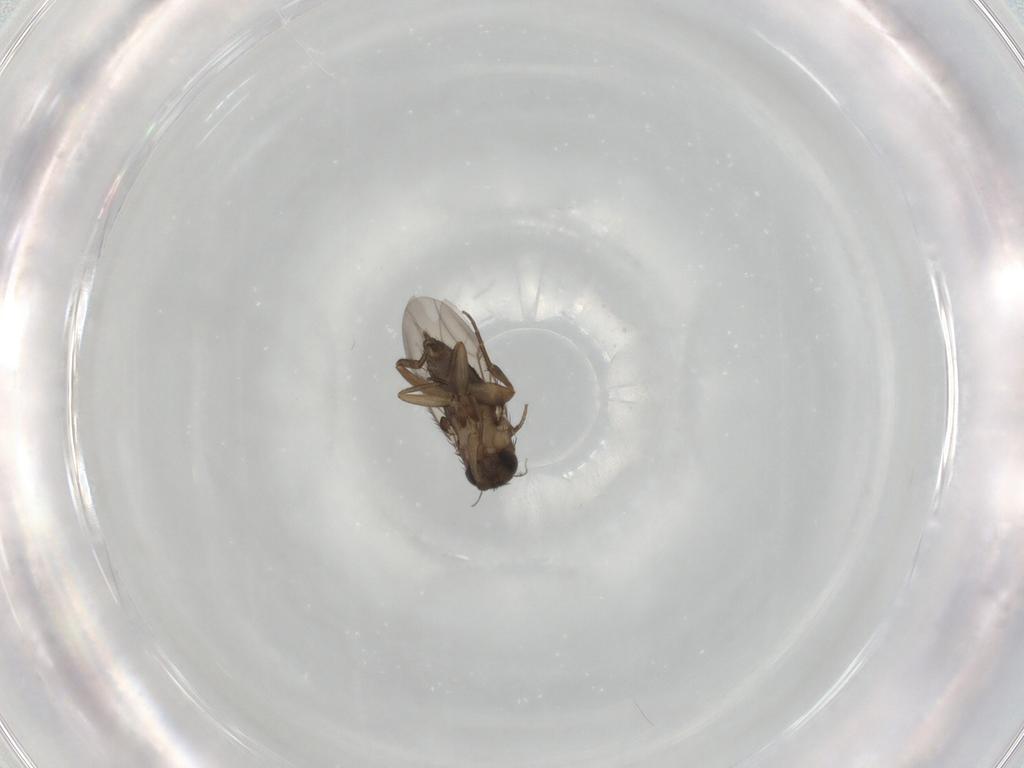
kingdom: Animalia
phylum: Arthropoda
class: Insecta
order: Diptera
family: Phoridae
